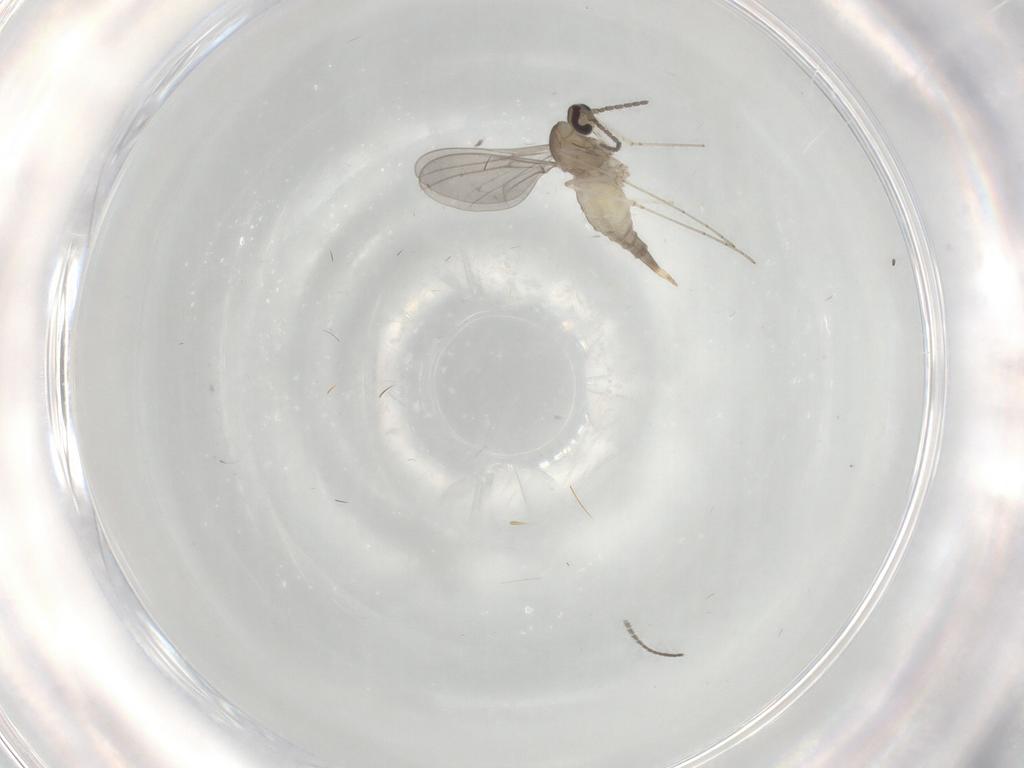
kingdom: Animalia
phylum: Arthropoda
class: Insecta
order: Diptera
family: Cecidomyiidae
